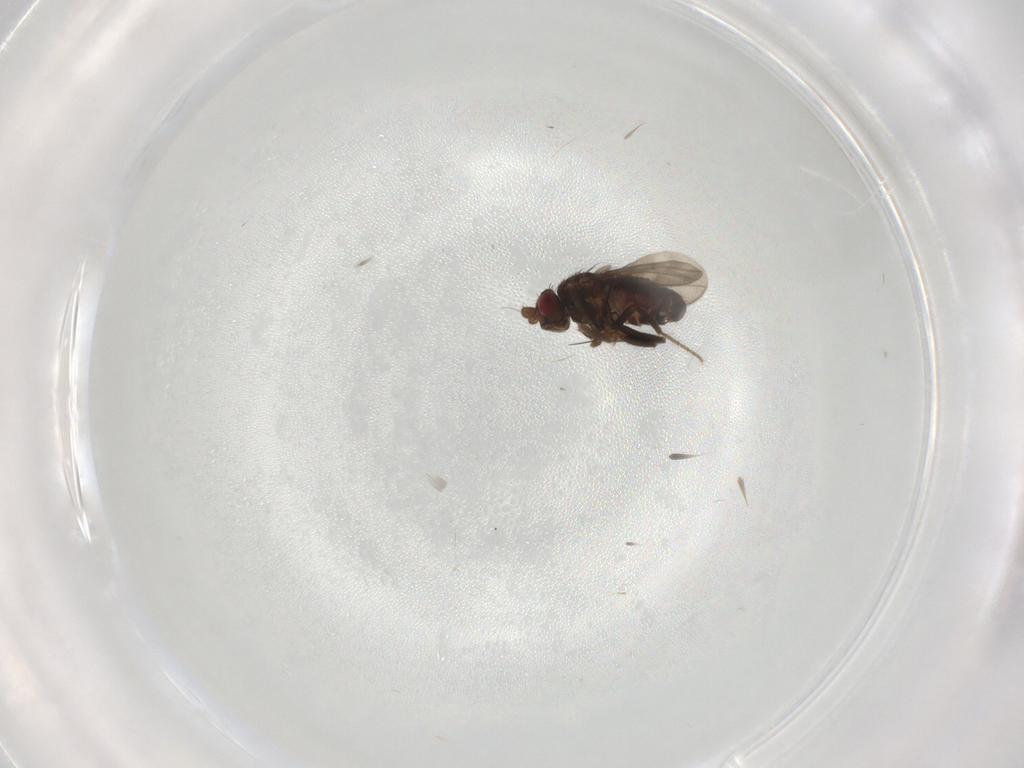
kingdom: Animalia
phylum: Arthropoda
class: Insecta
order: Diptera
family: Sphaeroceridae
